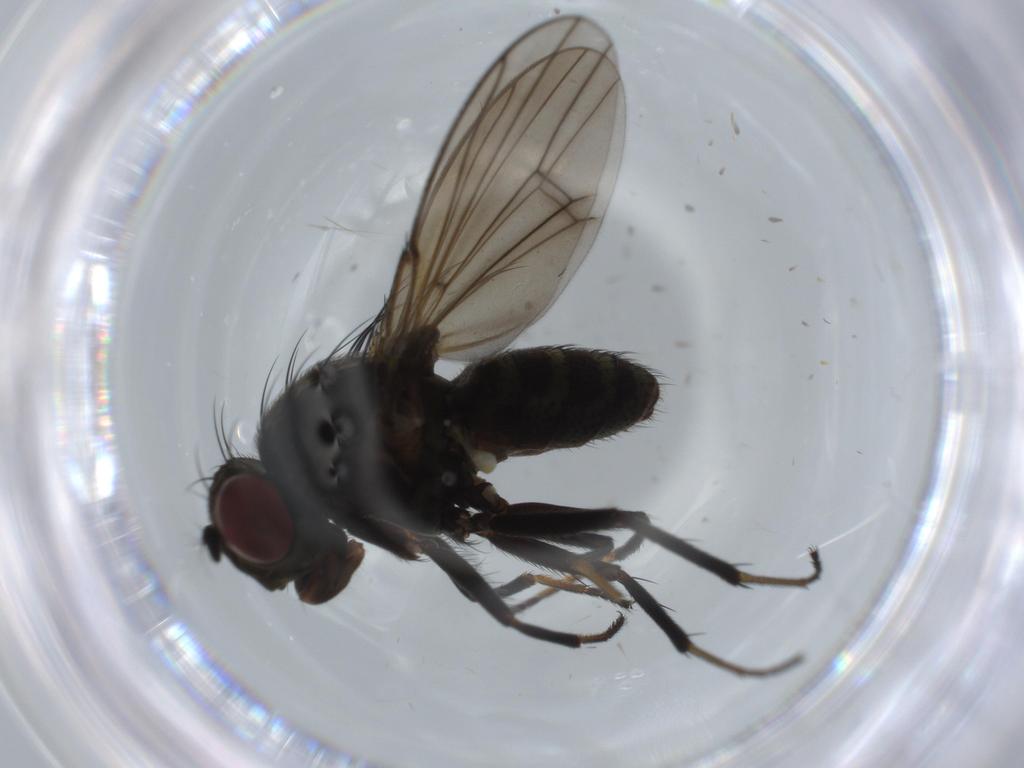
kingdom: Animalia
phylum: Arthropoda
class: Insecta
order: Diptera
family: Ephydridae
